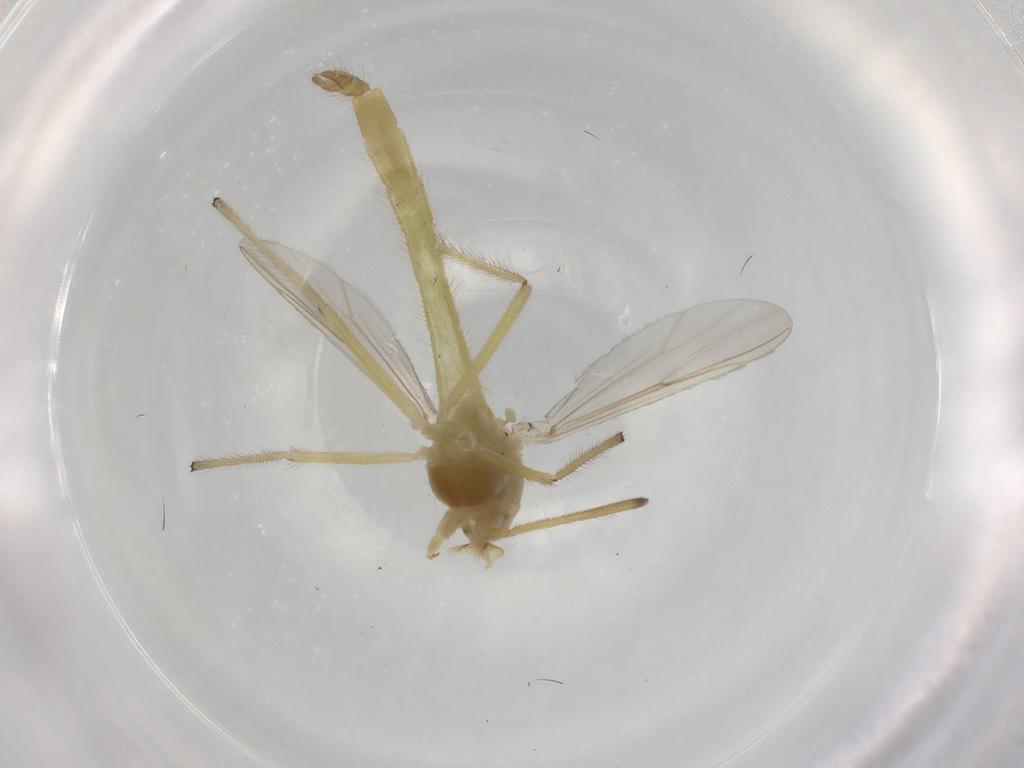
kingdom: Animalia
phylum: Arthropoda
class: Insecta
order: Diptera
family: Chironomidae
